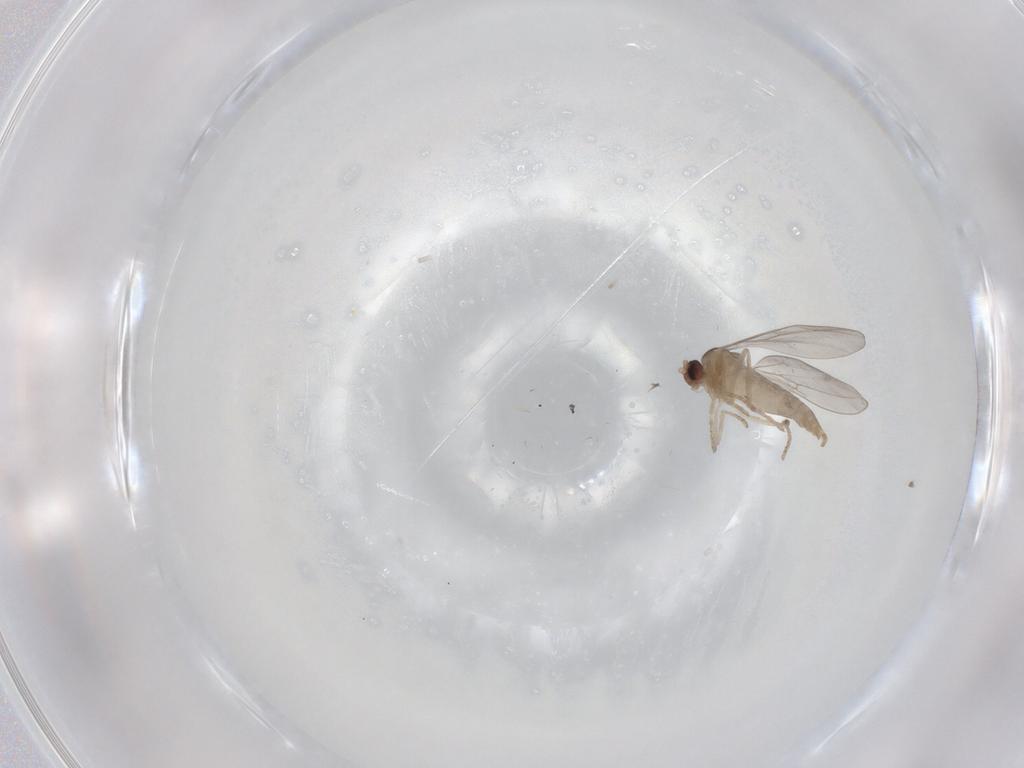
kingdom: Animalia
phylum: Arthropoda
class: Insecta
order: Diptera
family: Cecidomyiidae
